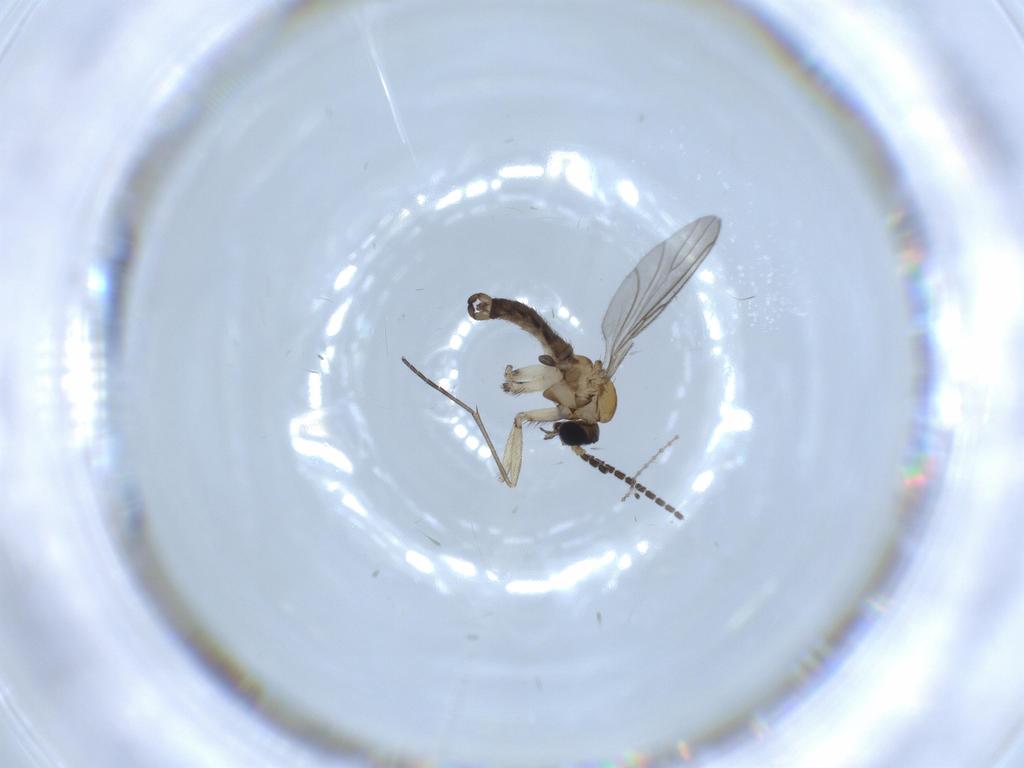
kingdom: Animalia
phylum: Arthropoda
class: Insecta
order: Diptera
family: Sciaridae
